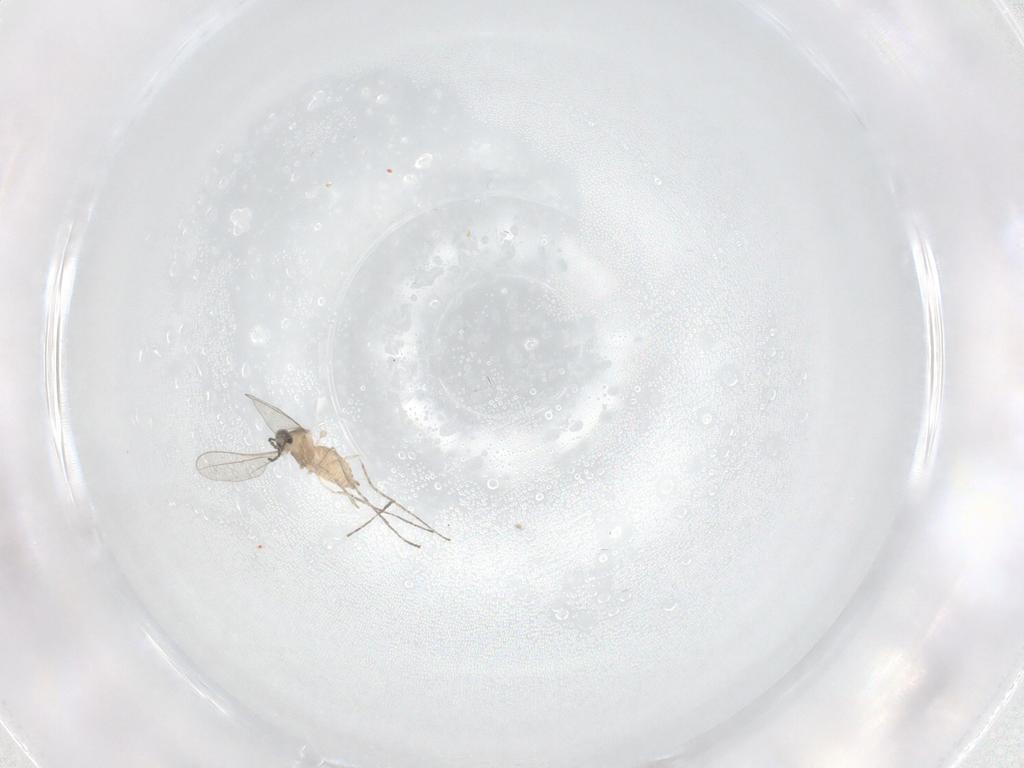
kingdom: Animalia
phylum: Arthropoda
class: Insecta
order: Diptera
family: Cecidomyiidae
